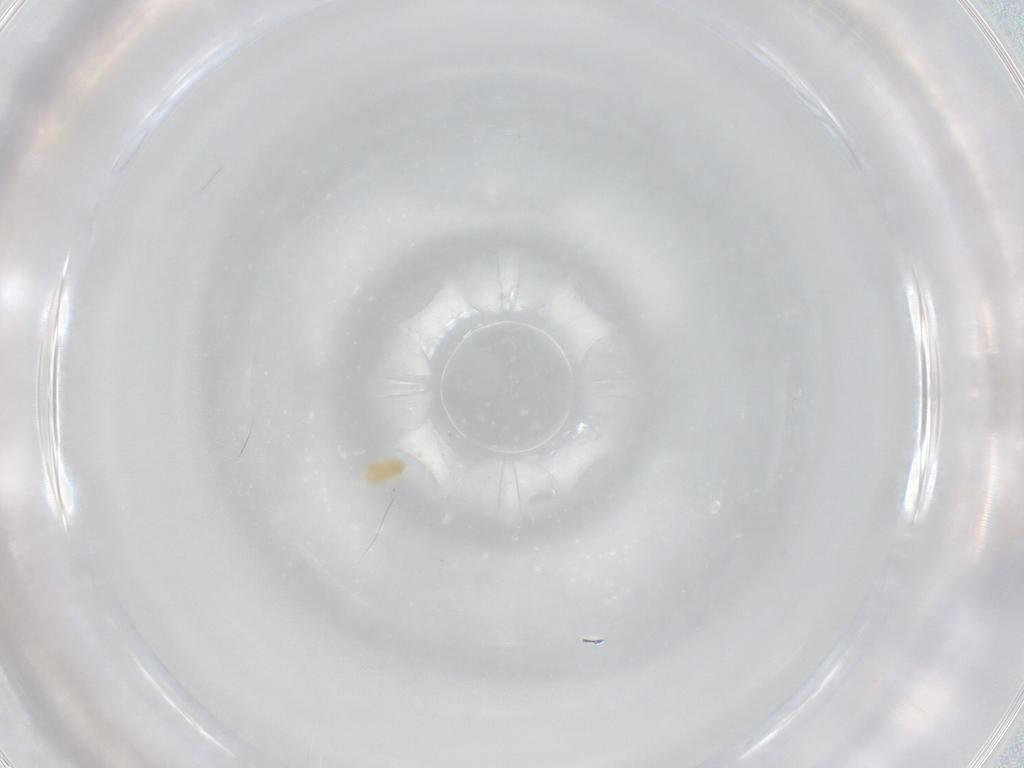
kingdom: Animalia
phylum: Arthropoda
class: Arachnida
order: Trombidiformes
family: Eupodidae
